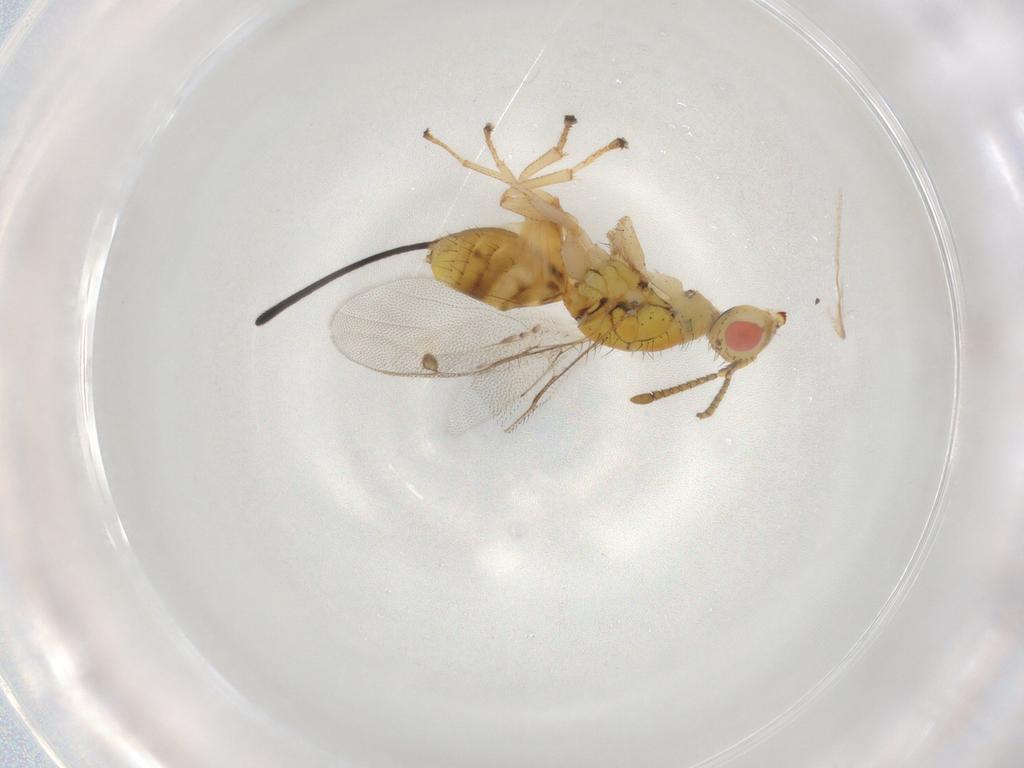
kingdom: Animalia
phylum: Arthropoda
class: Insecta
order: Hymenoptera
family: Megastigmidae
